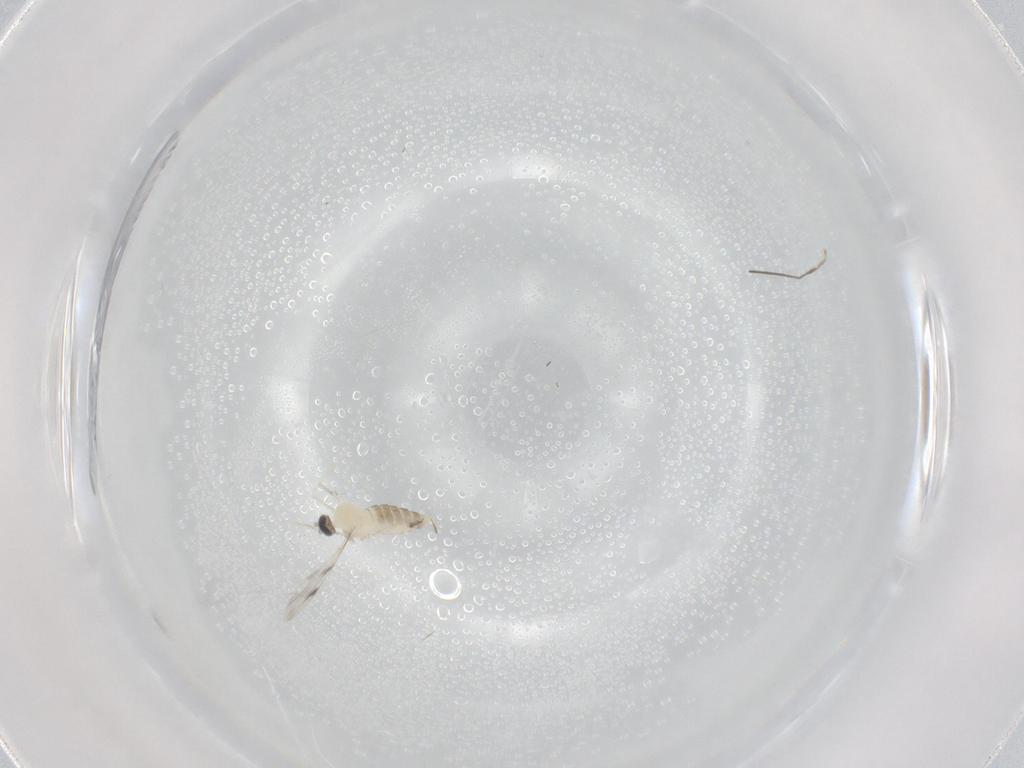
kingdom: Animalia
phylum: Arthropoda
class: Insecta
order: Diptera
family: Cecidomyiidae
